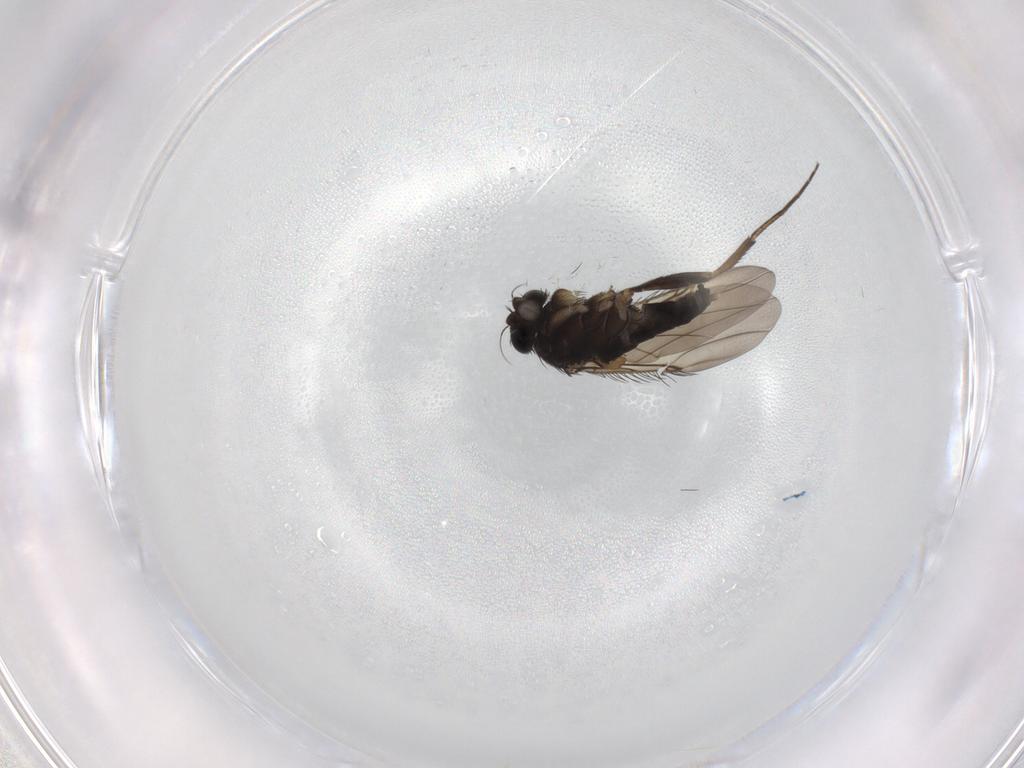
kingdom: Animalia
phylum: Arthropoda
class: Insecta
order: Diptera
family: Phoridae
